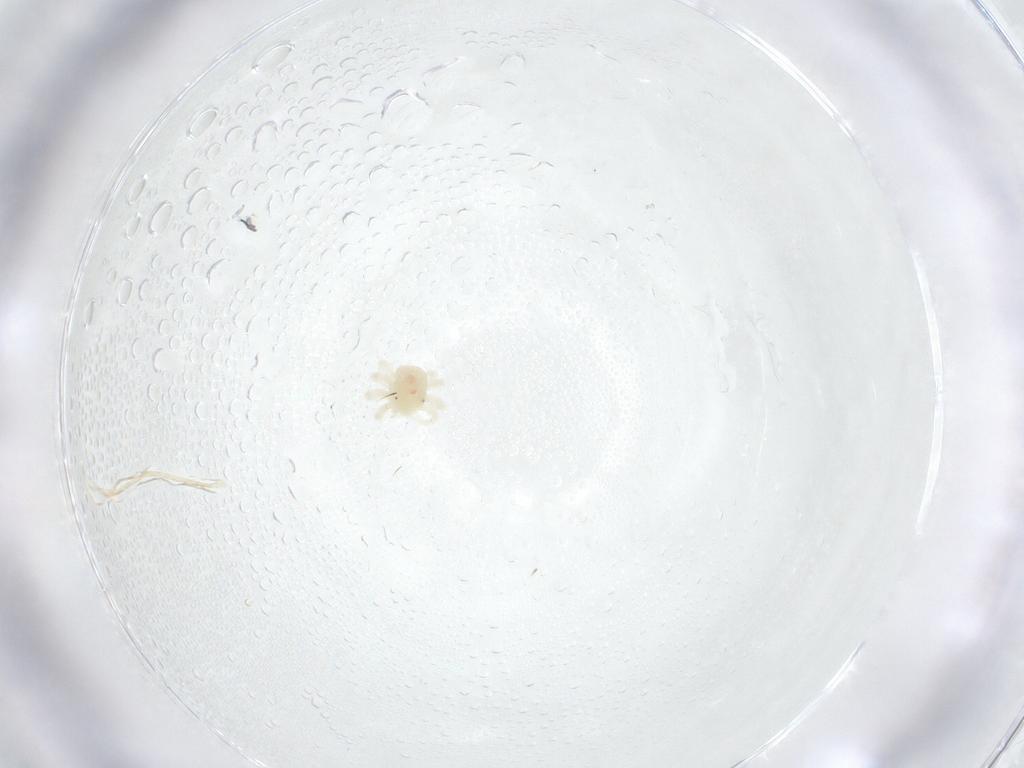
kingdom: Animalia
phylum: Arthropoda
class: Arachnida
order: Trombidiformes
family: Anystidae
